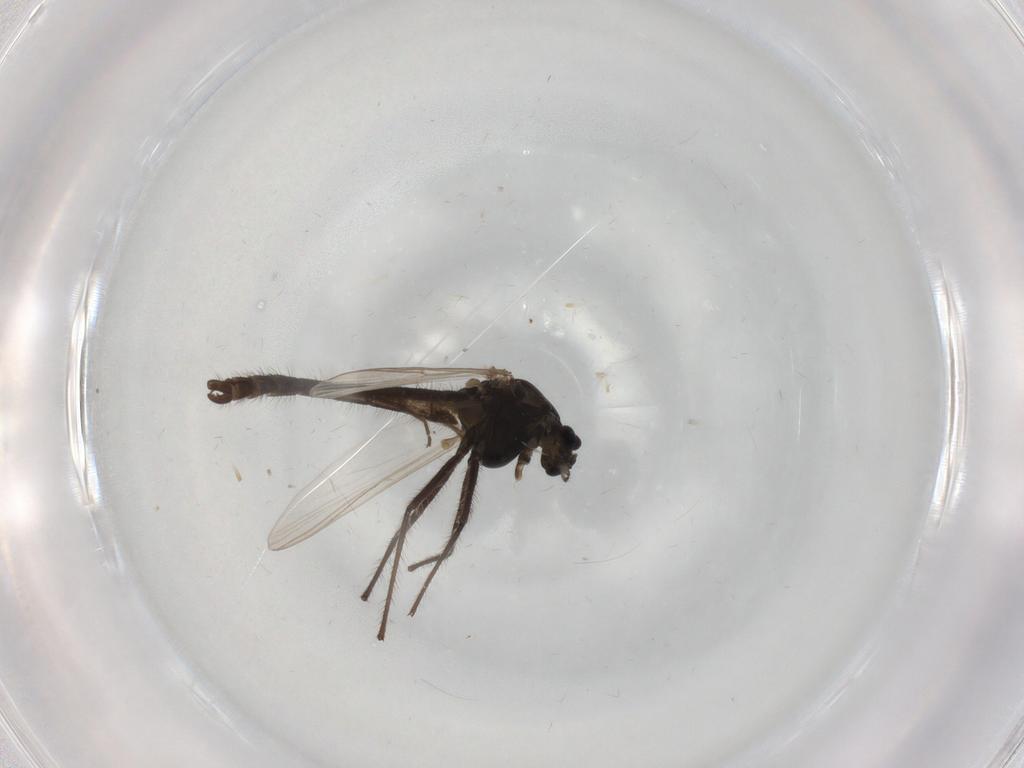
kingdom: Animalia
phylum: Arthropoda
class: Insecta
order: Diptera
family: Chironomidae
